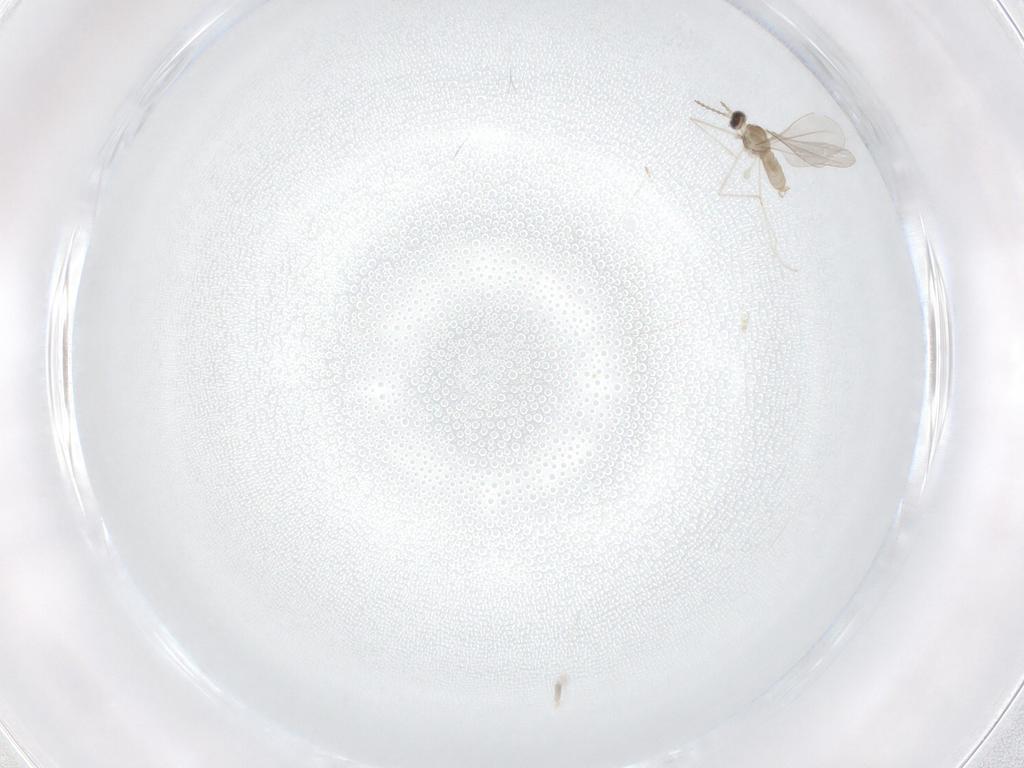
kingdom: Animalia
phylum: Arthropoda
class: Insecta
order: Diptera
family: Cecidomyiidae
